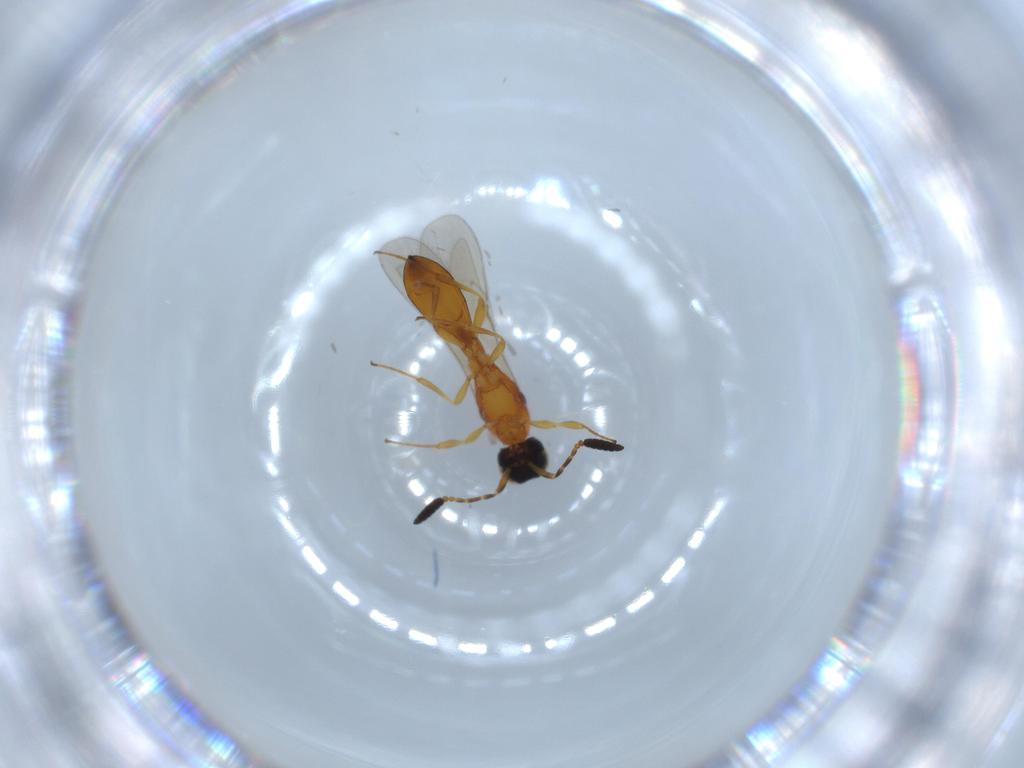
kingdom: Animalia
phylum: Arthropoda
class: Insecta
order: Hymenoptera
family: Scelionidae
